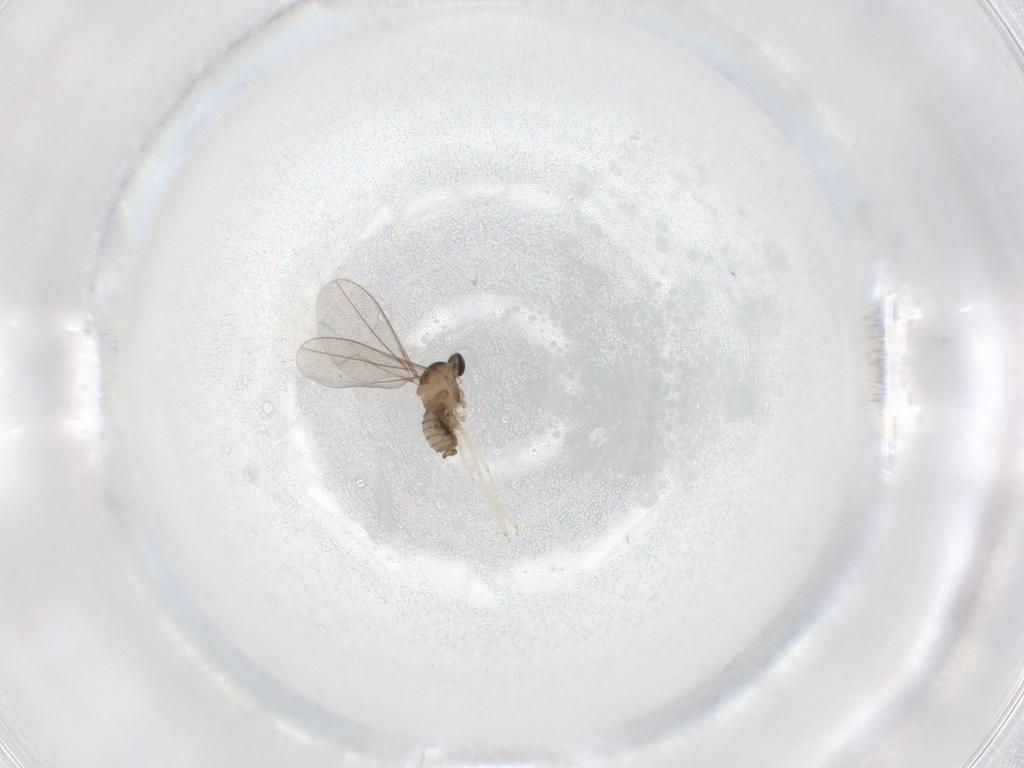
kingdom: Animalia
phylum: Arthropoda
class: Insecta
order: Diptera
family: Cecidomyiidae
